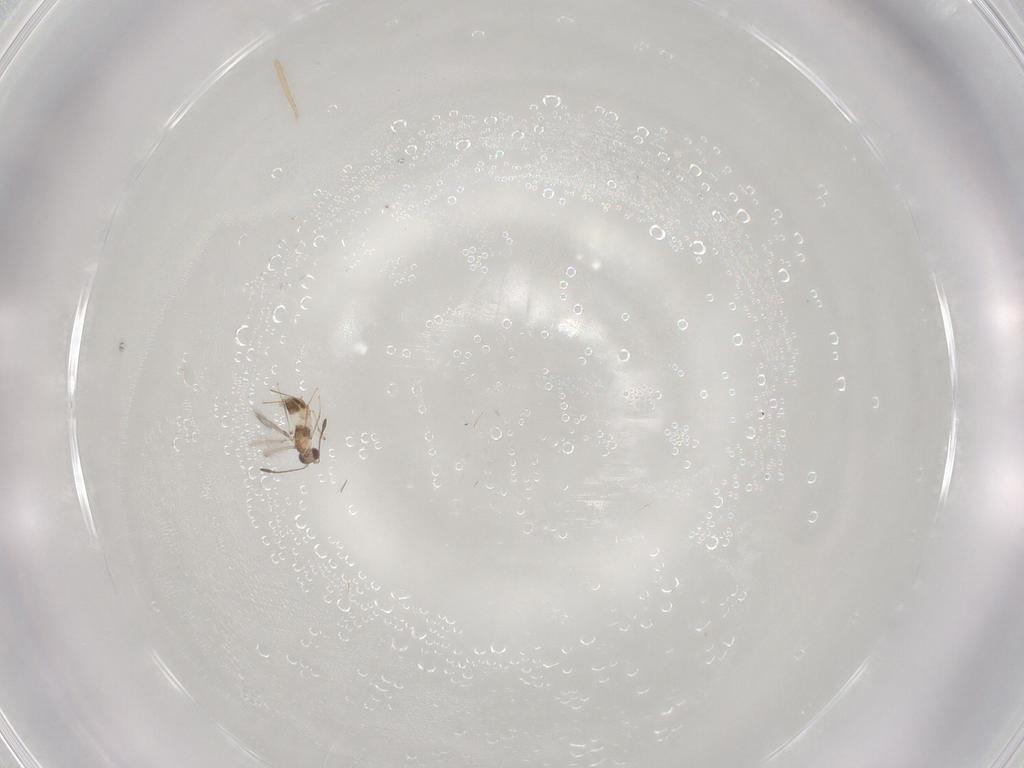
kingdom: Animalia
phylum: Arthropoda
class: Insecta
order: Hymenoptera
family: Mymaridae
